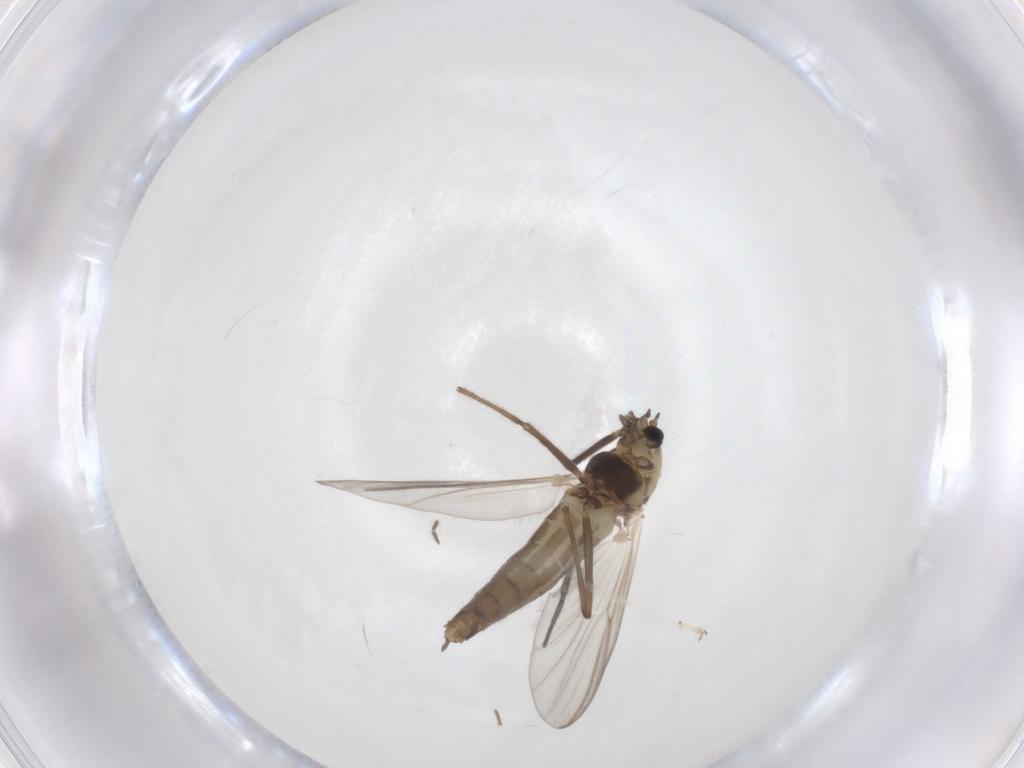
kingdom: Animalia
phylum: Arthropoda
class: Insecta
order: Diptera
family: Chironomidae
